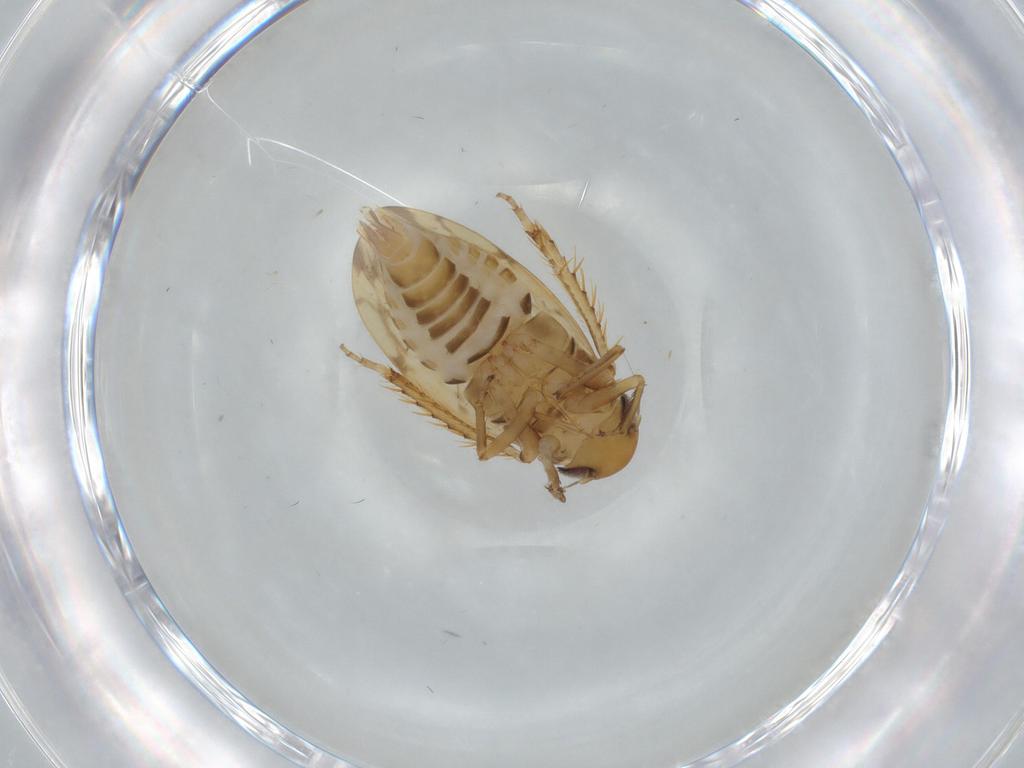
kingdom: Animalia
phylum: Arthropoda
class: Insecta
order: Hemiptera
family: Cicadellidae
